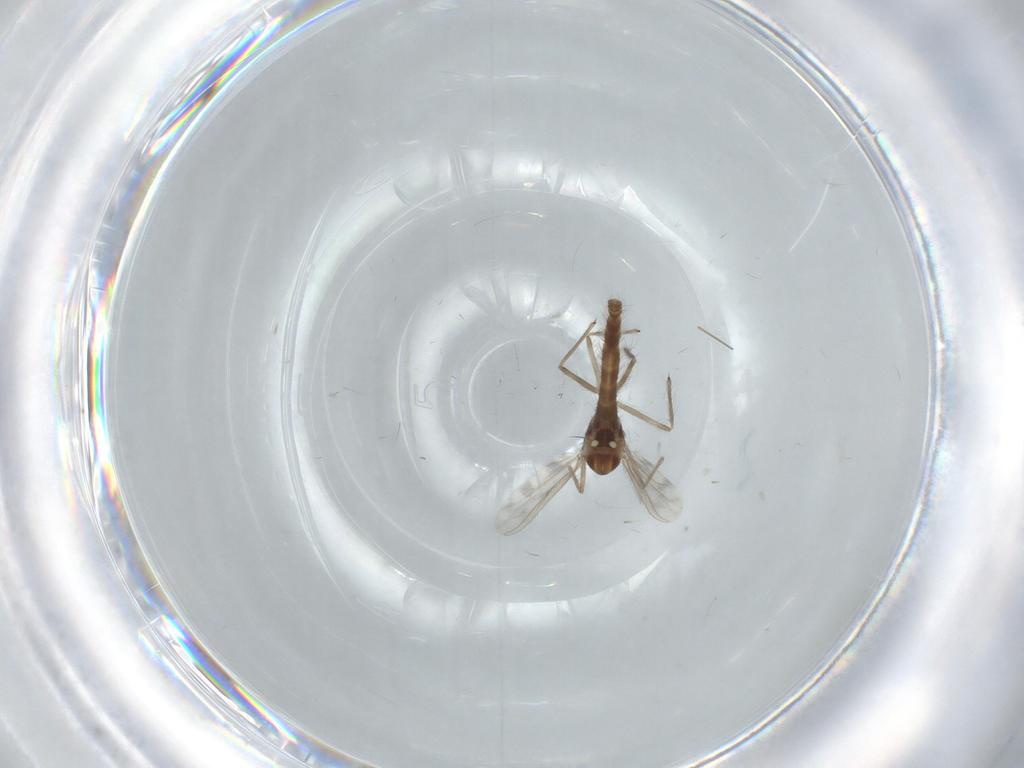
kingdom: Animalia
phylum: Arthropoda
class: Insecta
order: Diptera
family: Chironomidae
